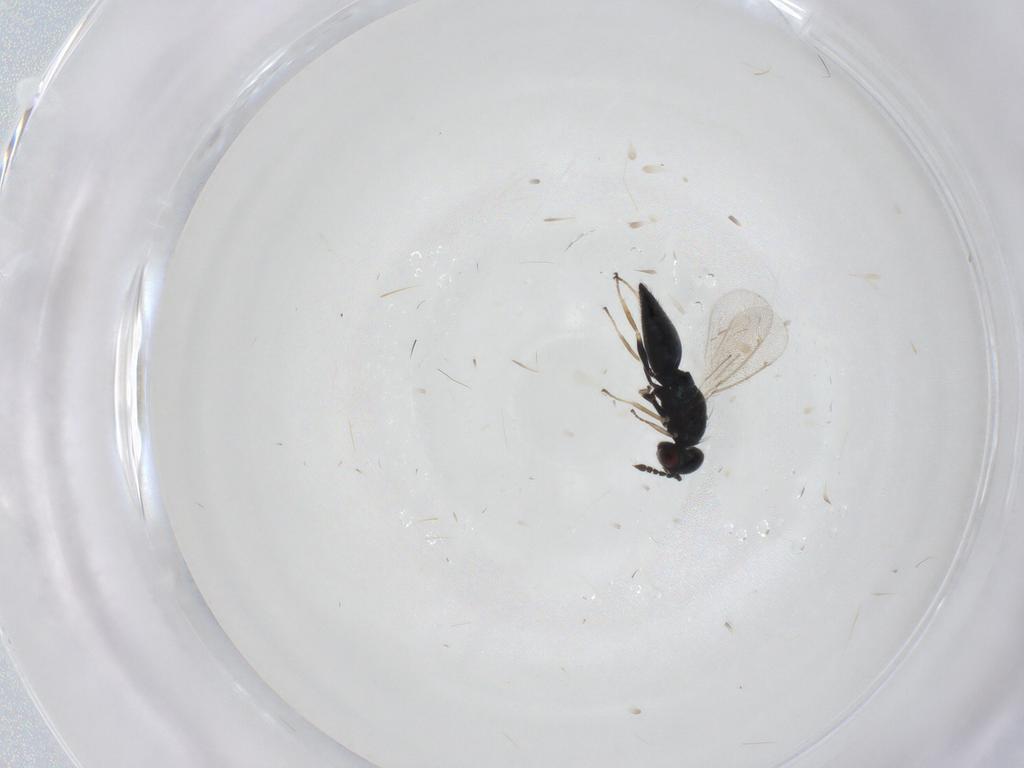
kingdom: Animalia
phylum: Arthropoda
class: Insecta
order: Hymenoptera
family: Eulophidae
